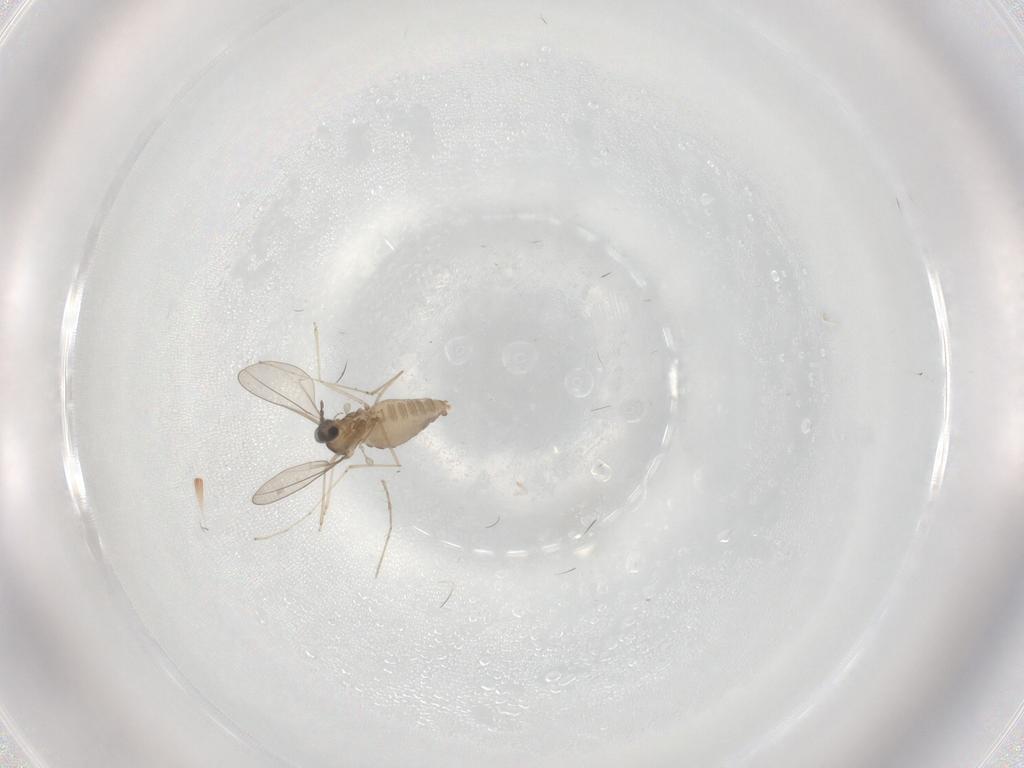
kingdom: Animalia
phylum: Arthropoda
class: Insecta
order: Diptera
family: Cecidomyiidae
